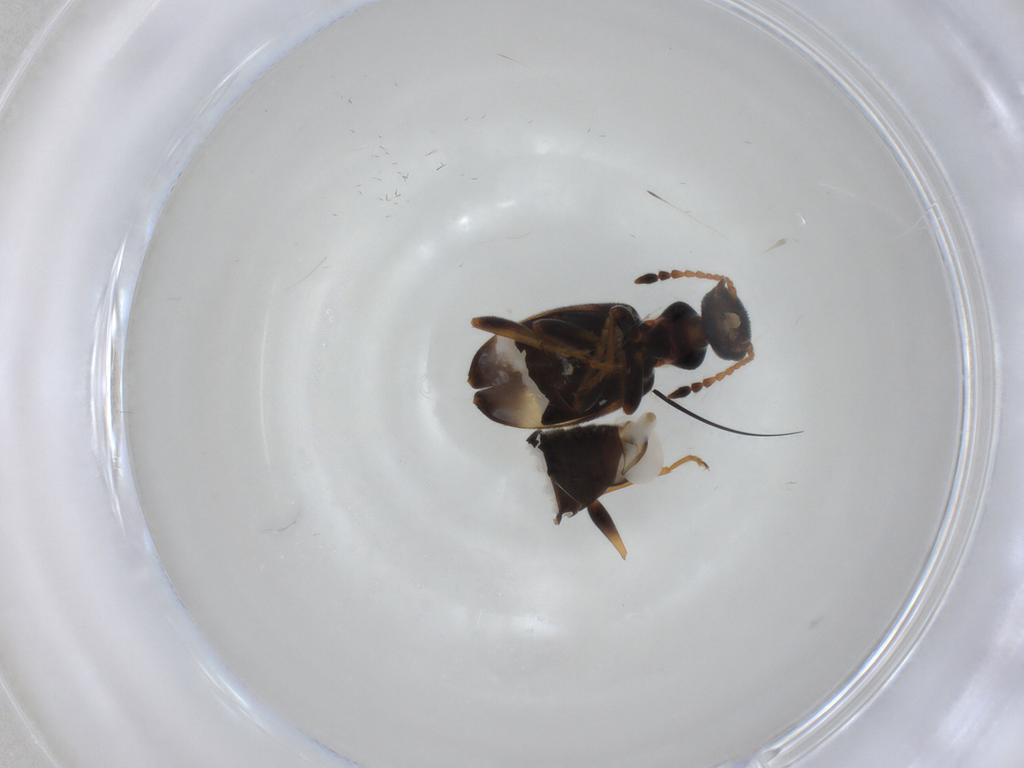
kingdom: Animalia
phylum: Arthropoda
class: Insecta
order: Coleoptera
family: Anthicidae
